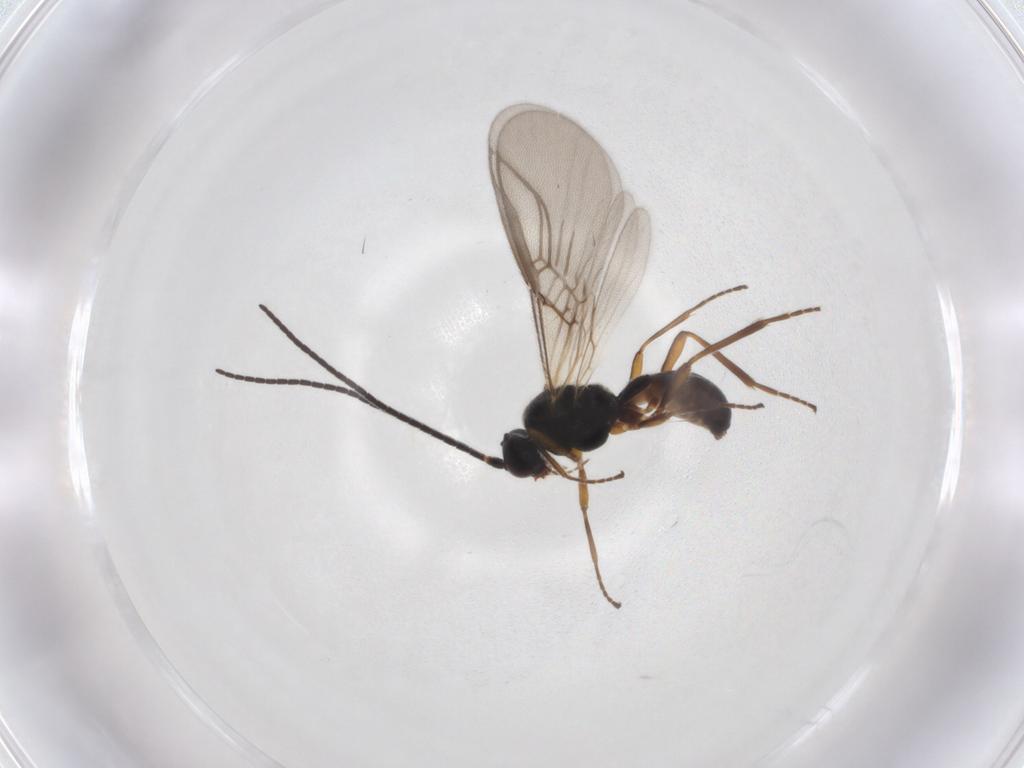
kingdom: Animalia
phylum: Arthropoda
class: Insecta
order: Hymenoptera
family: Braconidae
